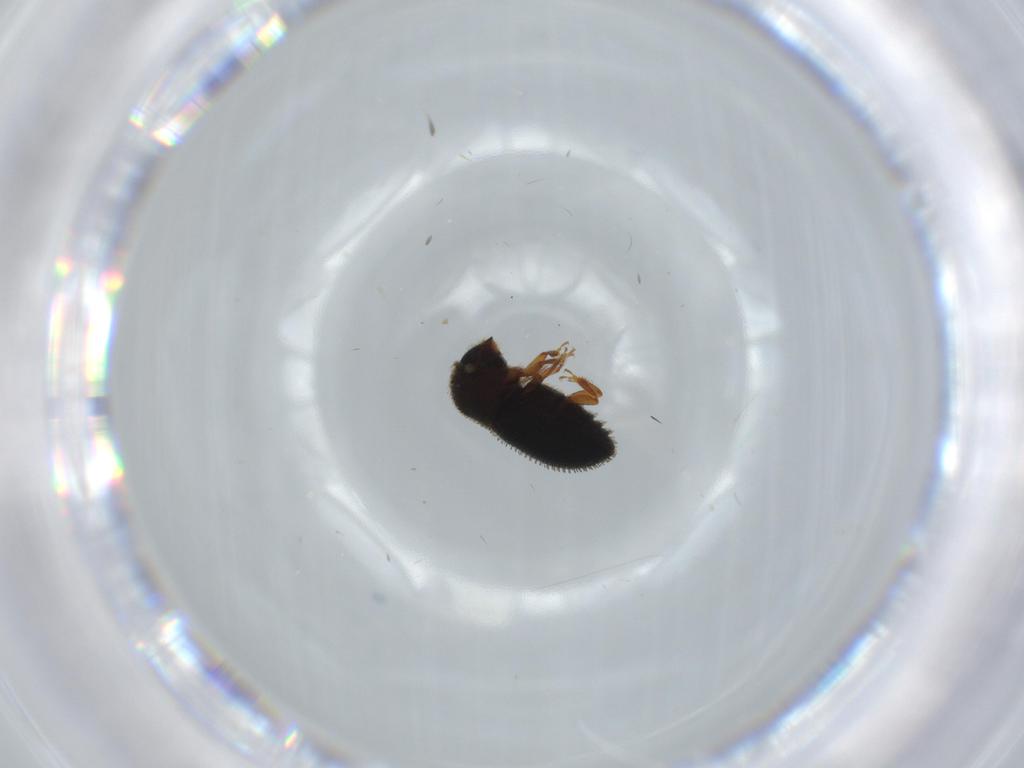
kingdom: Animalia
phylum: Arthropoda
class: Insecta
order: Coleoptera
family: Curculionidae
